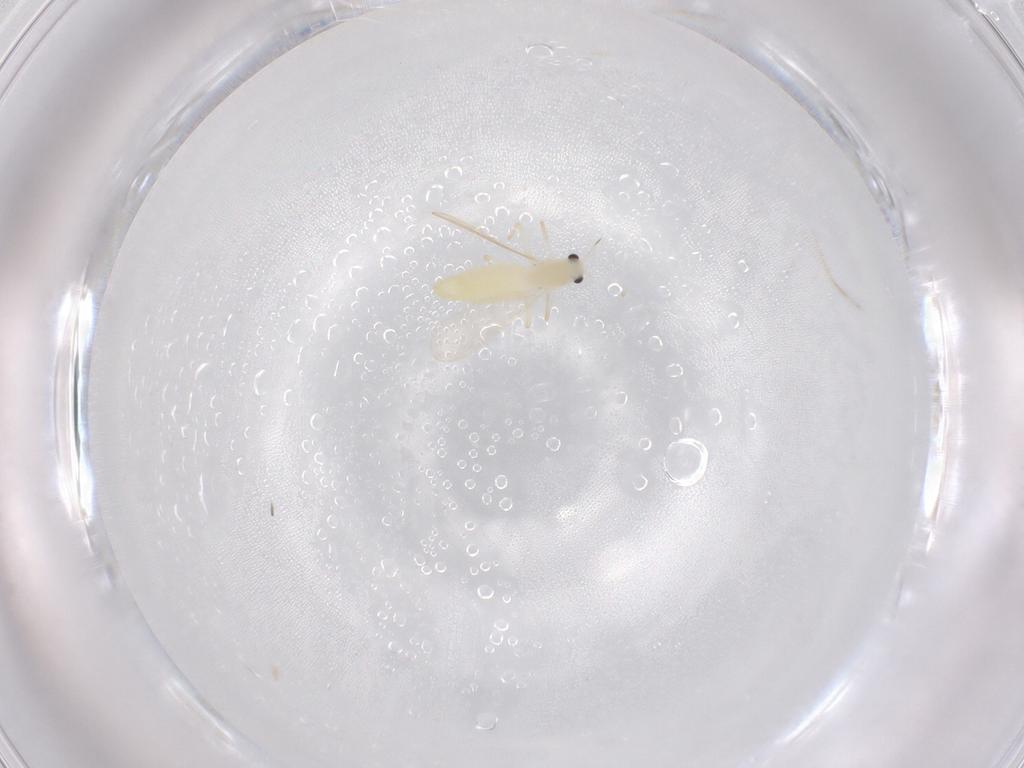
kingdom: Animalia
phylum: Arthropoda
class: Insecta
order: Diptera
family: Chironomidae
